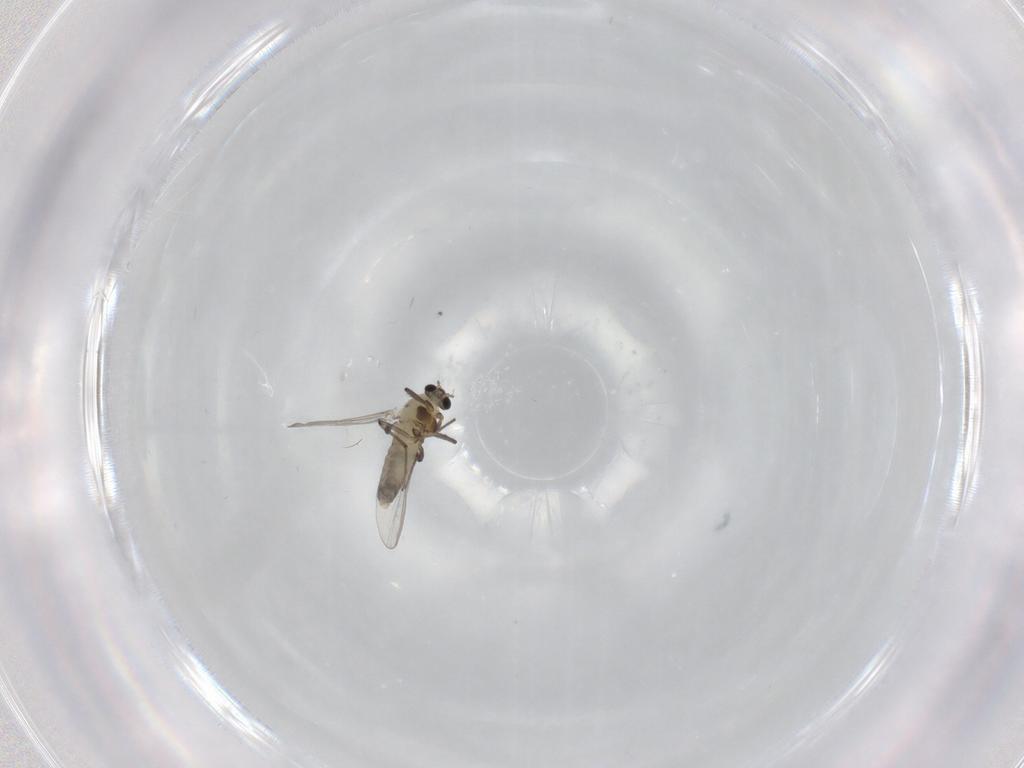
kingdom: Animalia
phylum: Arthropoda
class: Insecta
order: Diptera
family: Chironomidae
